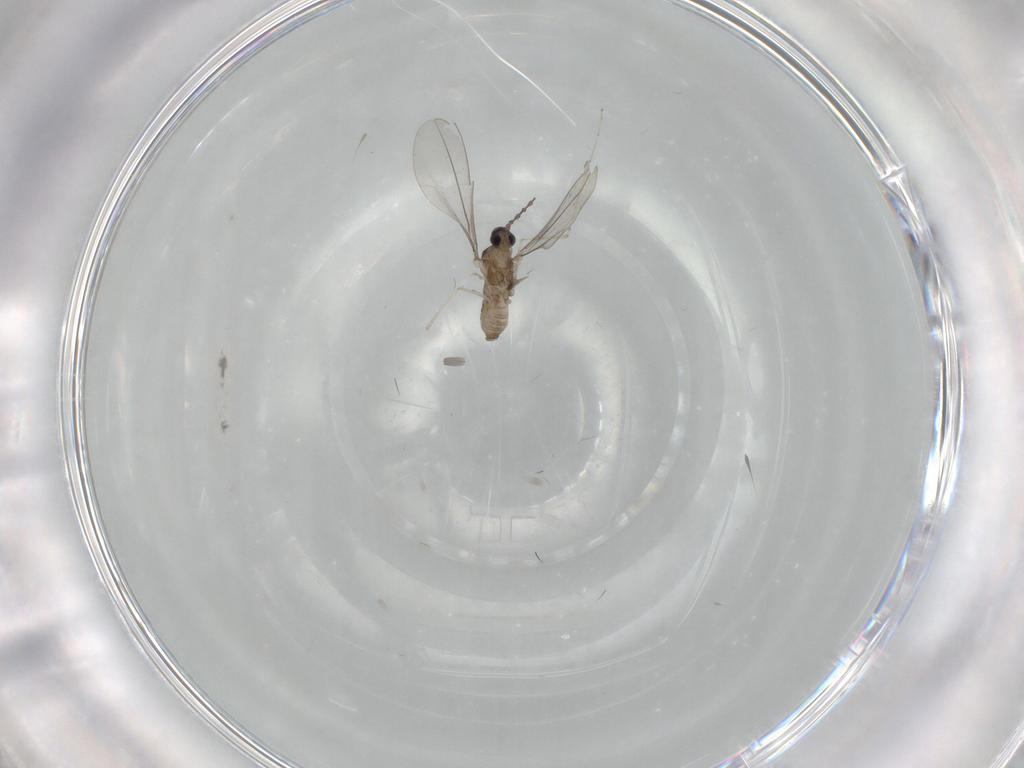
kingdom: Animalia
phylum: Arthropoda
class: Insecta
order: Diptera
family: Cecidomyiidae
